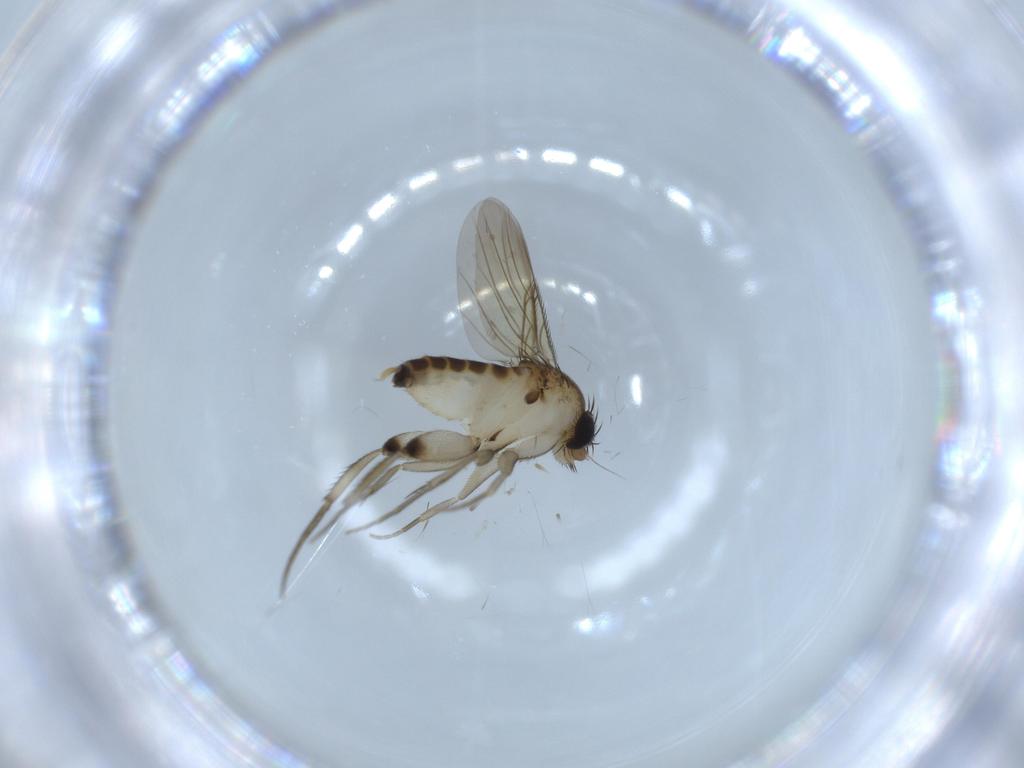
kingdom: Animalia
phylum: Arthropoda
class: Insecta
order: Diptera
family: Phoridae
